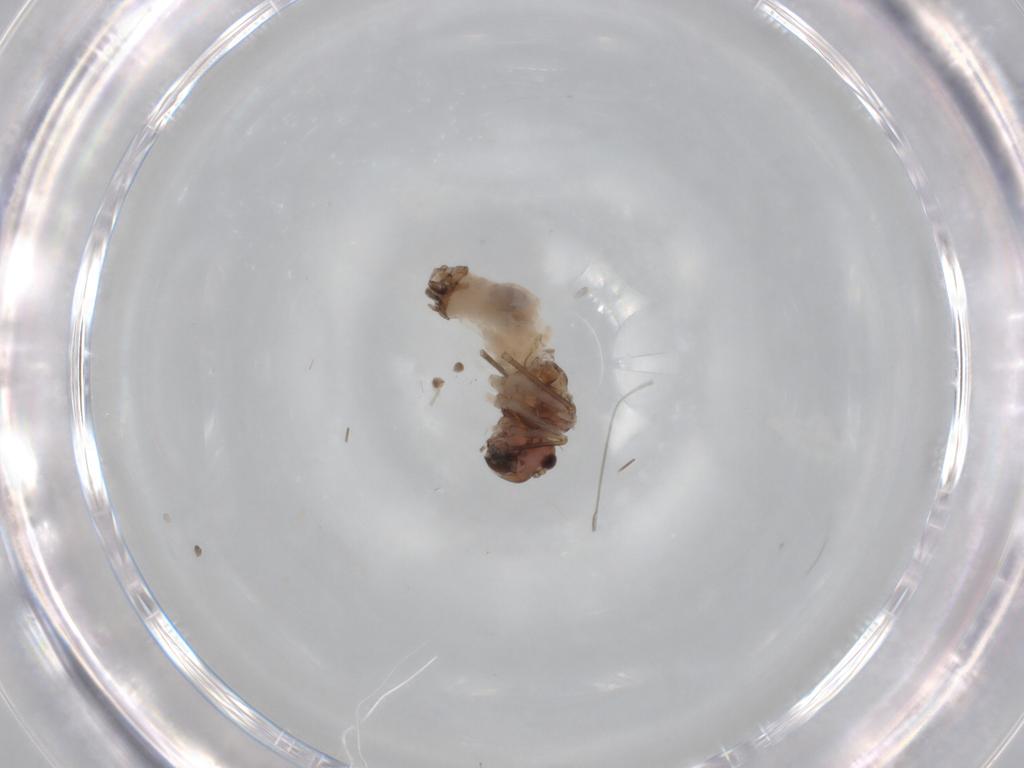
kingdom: Animalia
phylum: Arthropoda
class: Insecta
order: Psocodea
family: Peripsocidae
